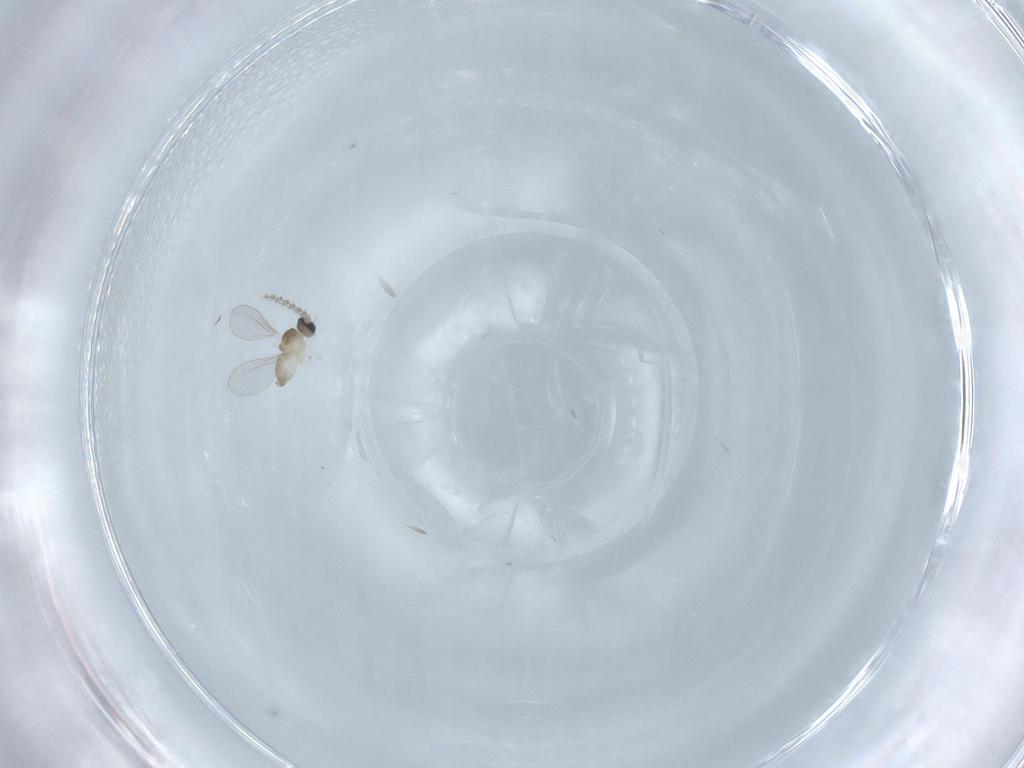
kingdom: Animalia
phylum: Arthropoda
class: Insecta
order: Diptera
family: Cecidomyiidae
